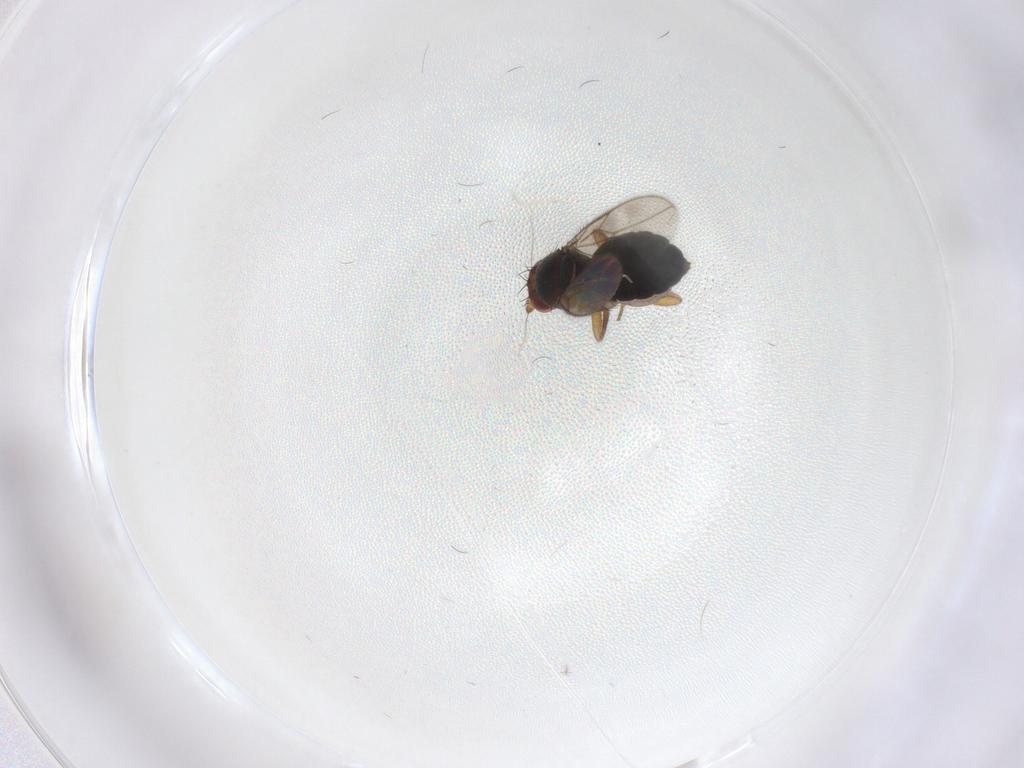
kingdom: Animalia
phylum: Arthropoda
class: Insecta
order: Diptera
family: Sphaeroceridae
